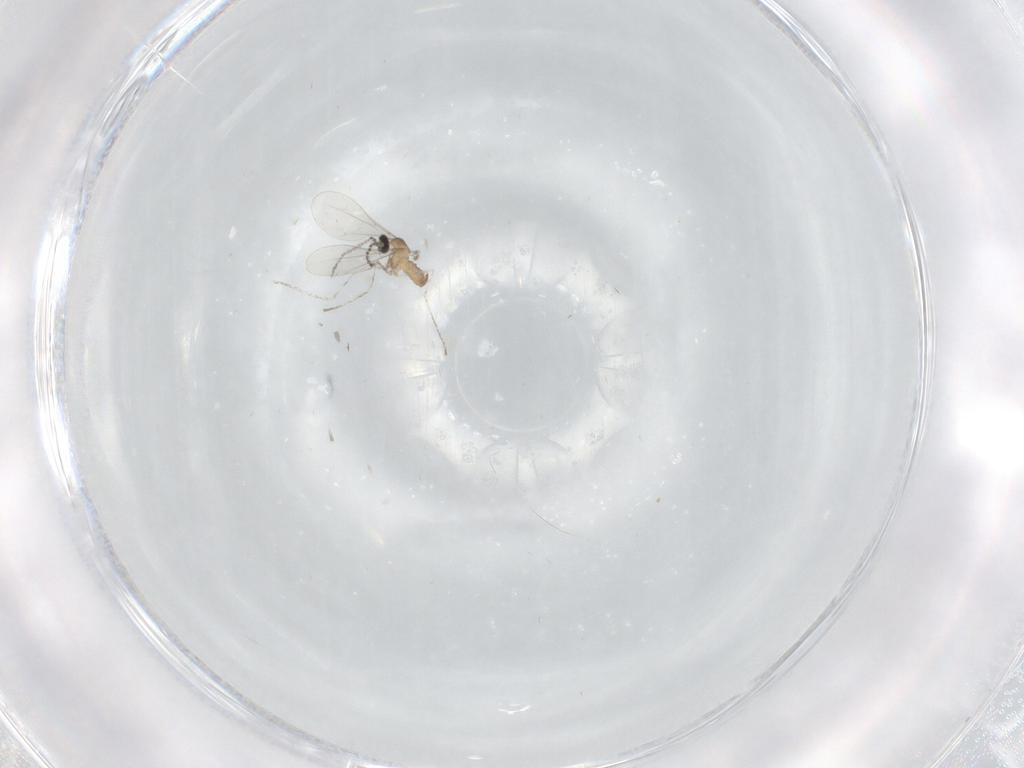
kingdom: Animalia
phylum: Arthropoda
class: Insecta
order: Diptera
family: Cecidomyiidae
